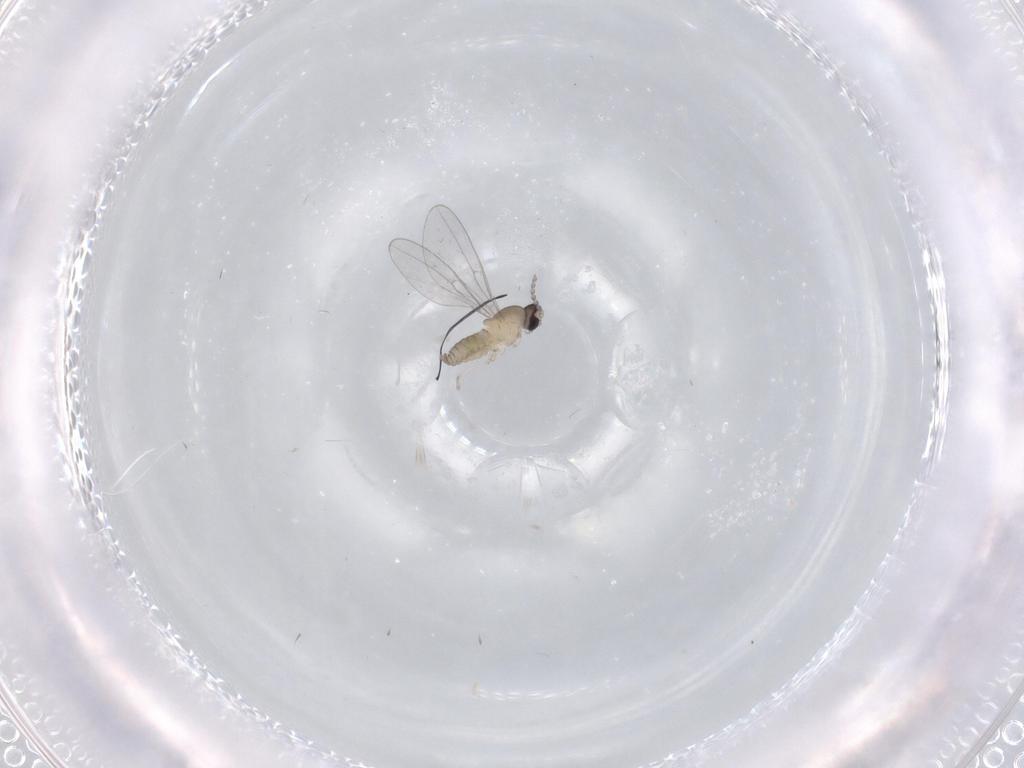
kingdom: Animalia
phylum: Arthropoda
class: Insecta
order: Diptera
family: Cecidomyiidae
